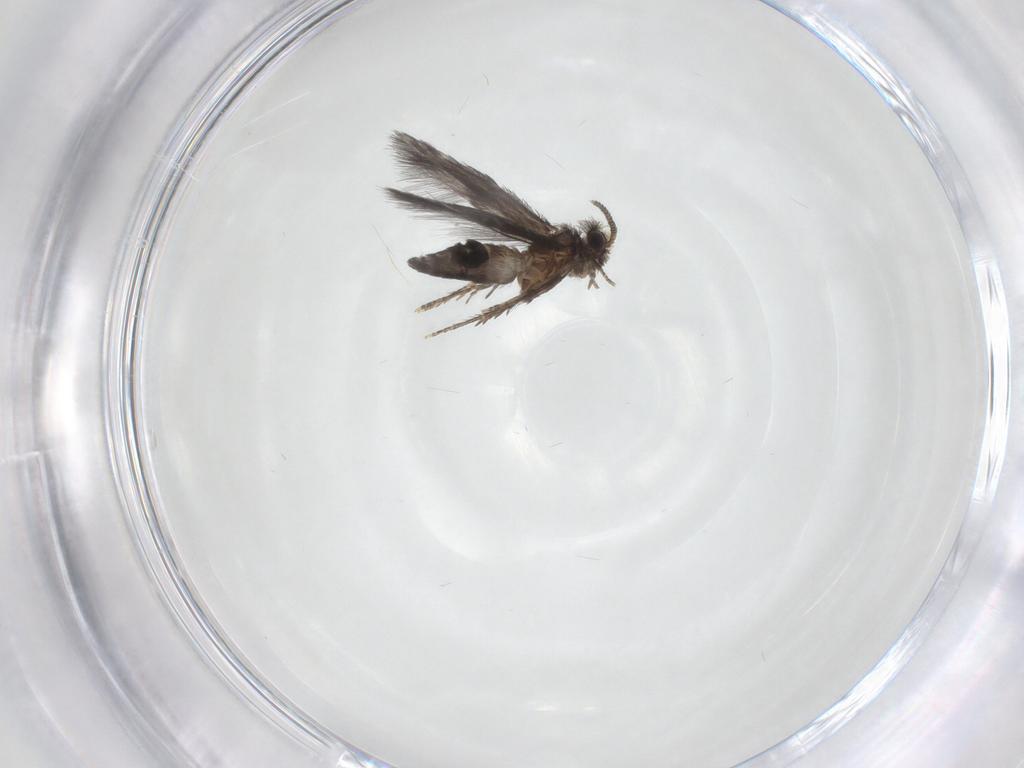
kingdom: Animalia
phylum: Arthropoda
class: Insecta
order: Trichoptera
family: Hydroptilidae
